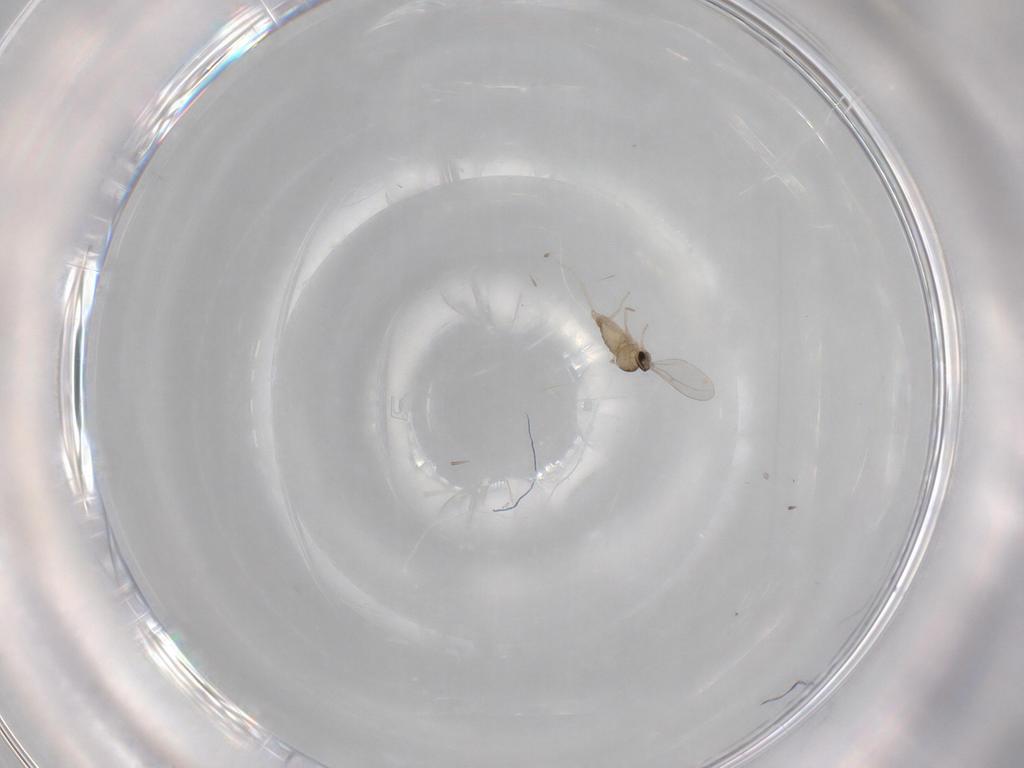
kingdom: Animalia
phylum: Arthropoda
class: Insecta
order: Diptera
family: Cecidomyiidae
